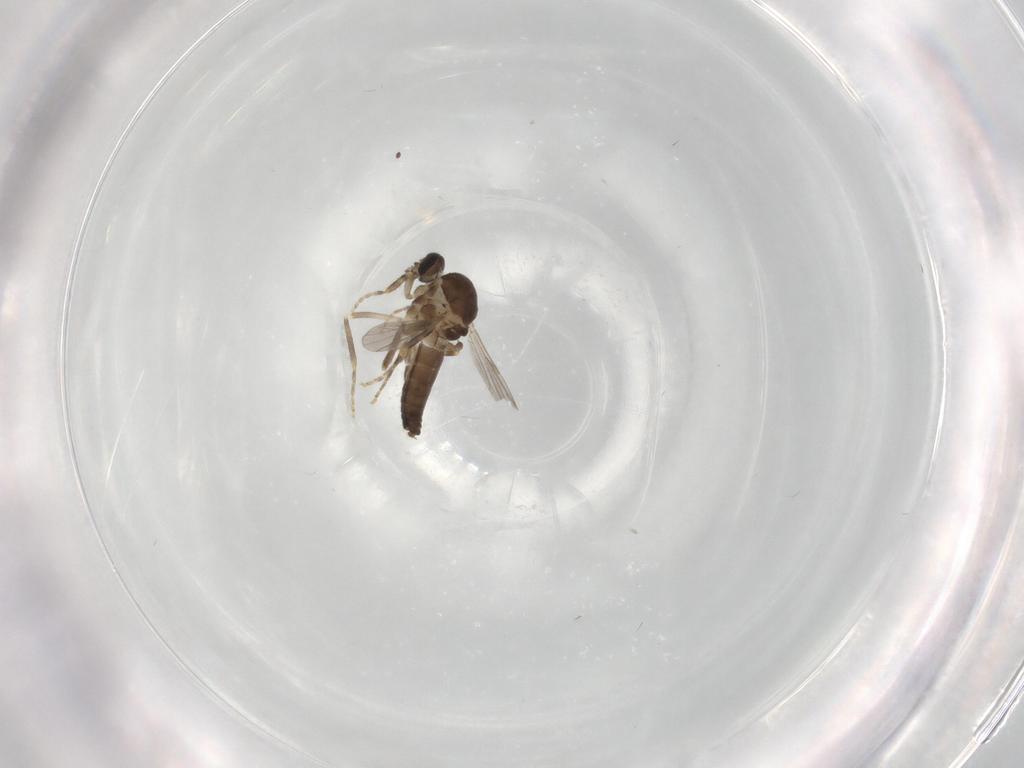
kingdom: Animalia
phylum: Arthropoda
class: Insecta
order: Diptera
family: Ceratopogonidae
